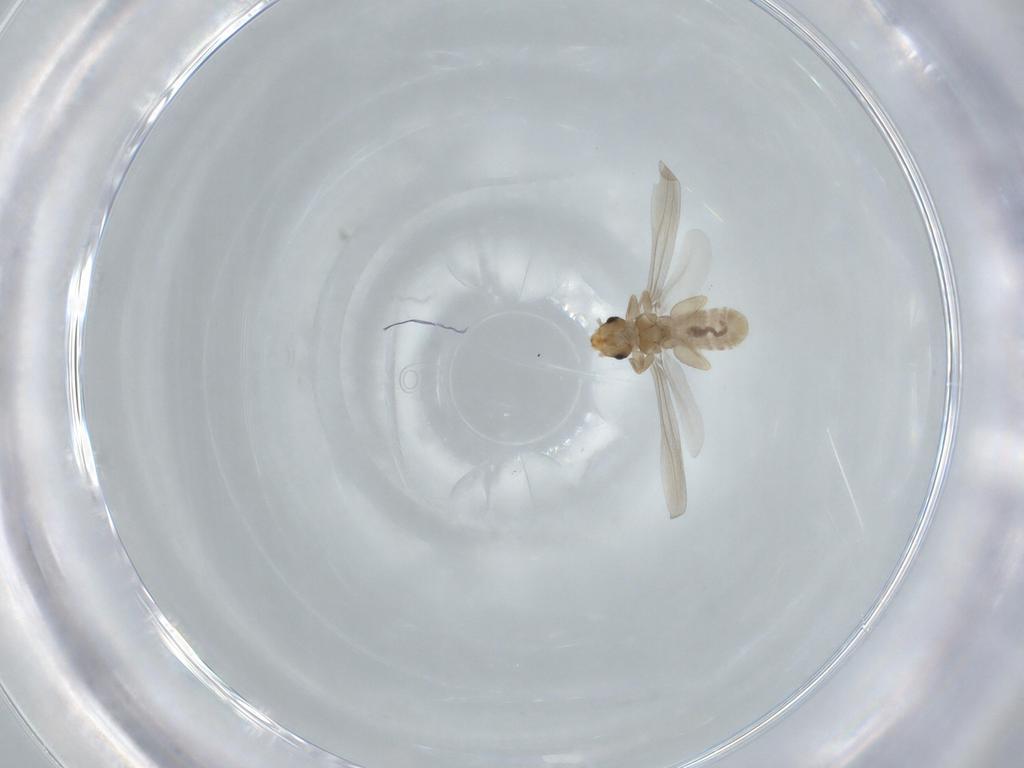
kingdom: Animalia
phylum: Arthropoda
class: Insecta
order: Psocodea
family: Liposcelididae
